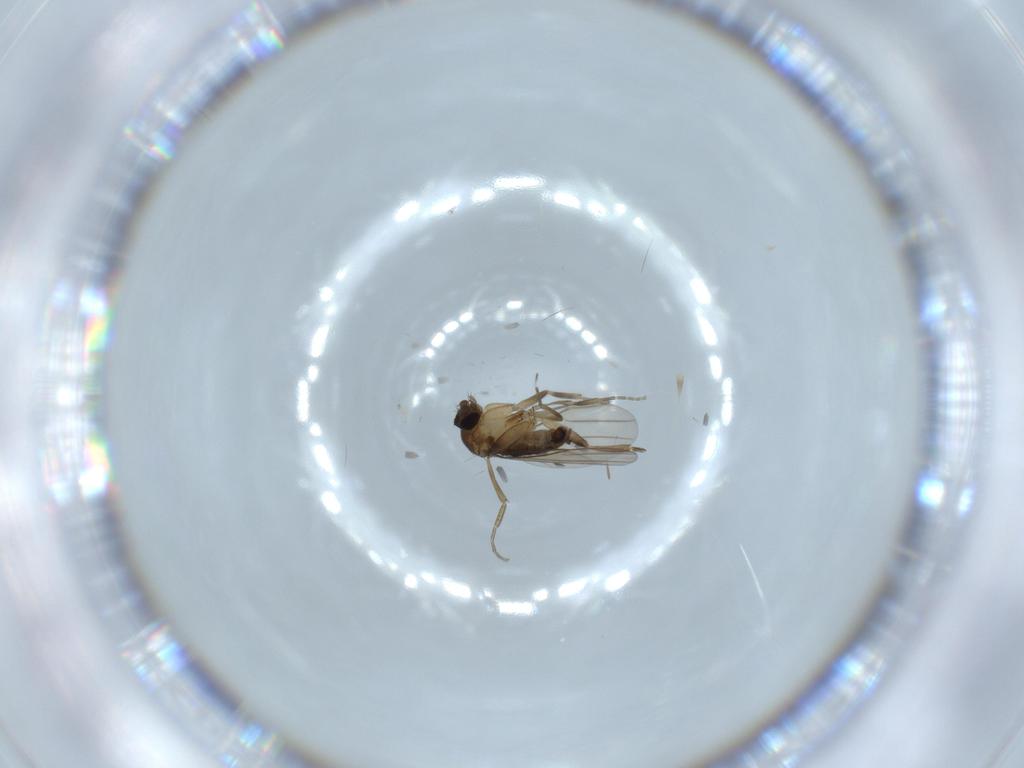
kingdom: Animalia
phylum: Arthropoda
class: Insecta
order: Diptera
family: Phoridae
